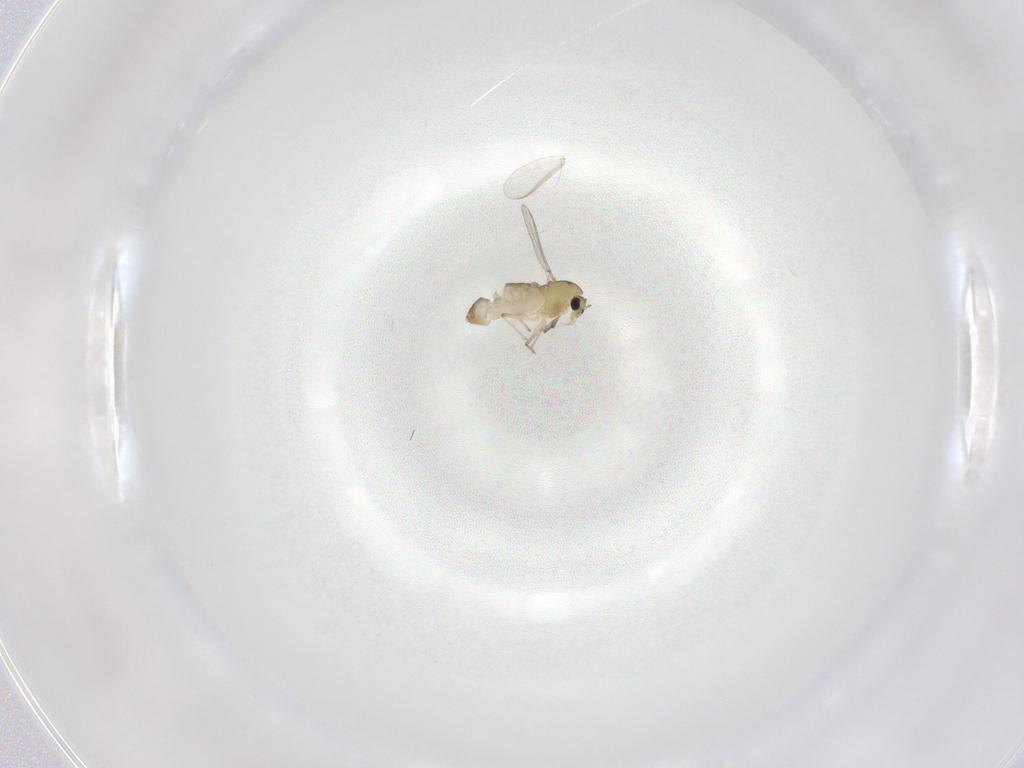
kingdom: Animalia
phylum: Arthropoda
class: Insecta
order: Diptera
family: Chironomidae
